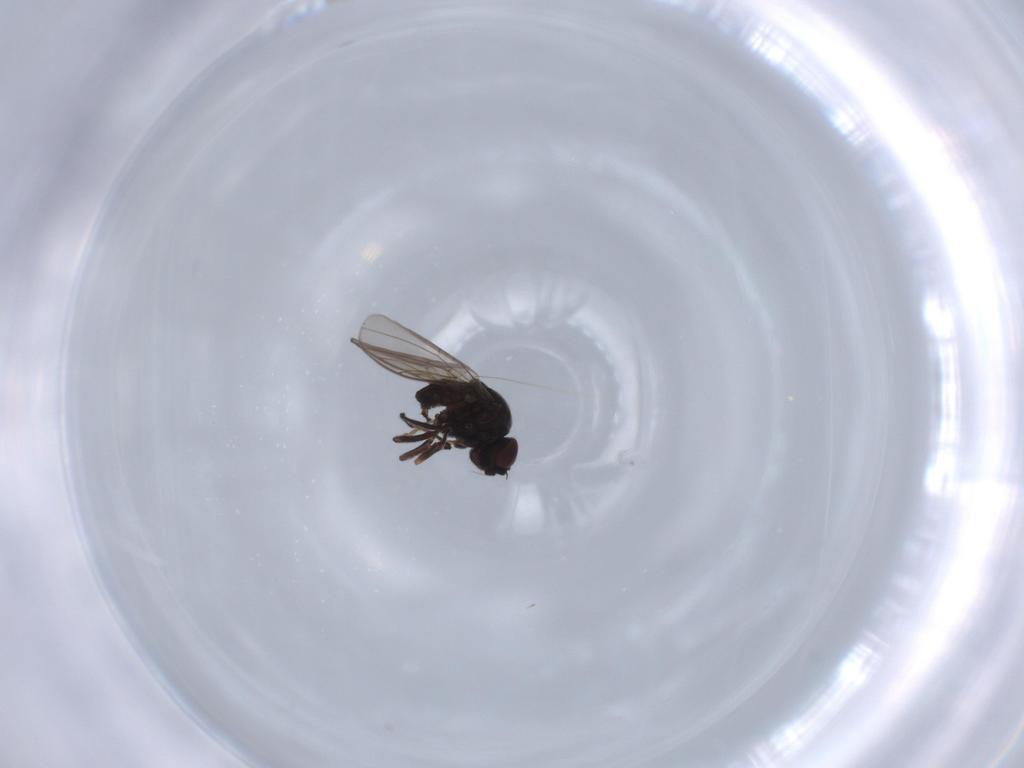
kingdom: Animalia
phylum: Arthropoda
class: Insecta
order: Diptera
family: Chloropidae
